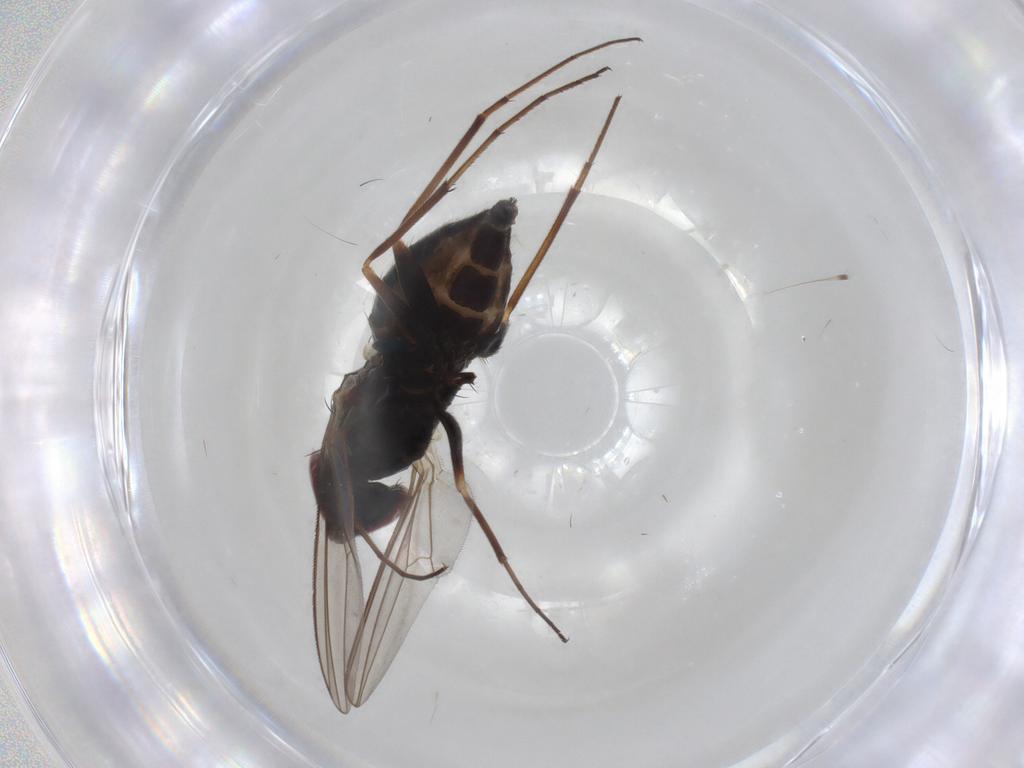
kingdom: Animalia
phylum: Arthropoda
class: Insecta
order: Diptera
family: Dolichopodidae
